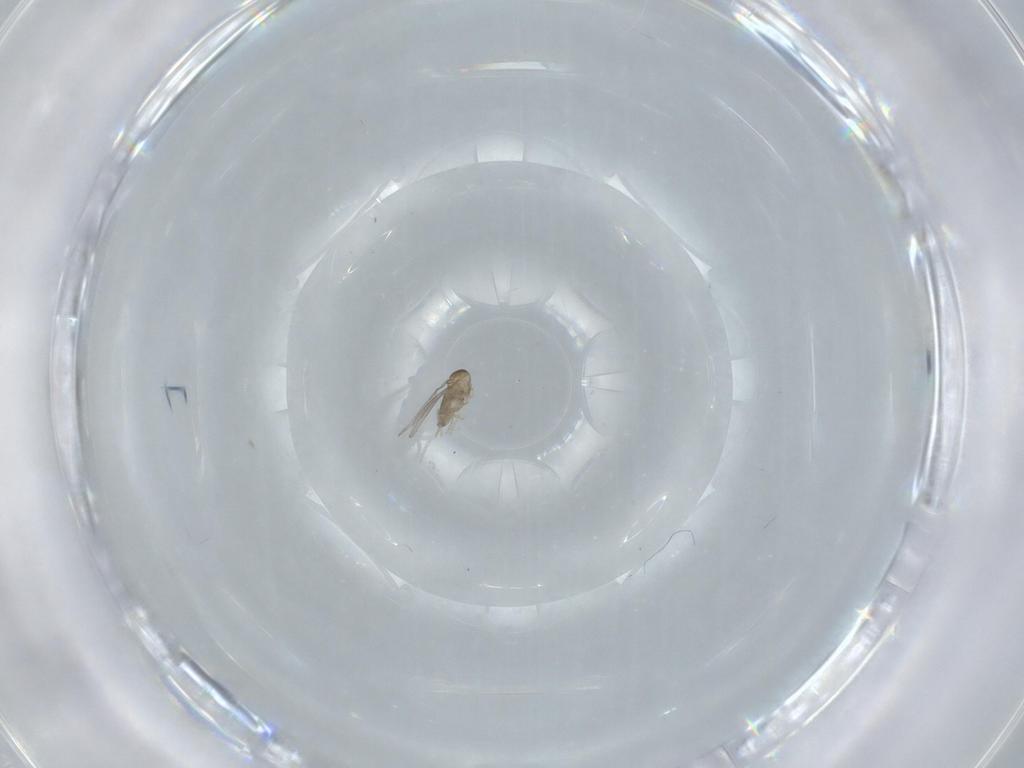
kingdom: Animalia
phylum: Arthropoda
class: Insecta
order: Diptera
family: Cecidomyiidae
